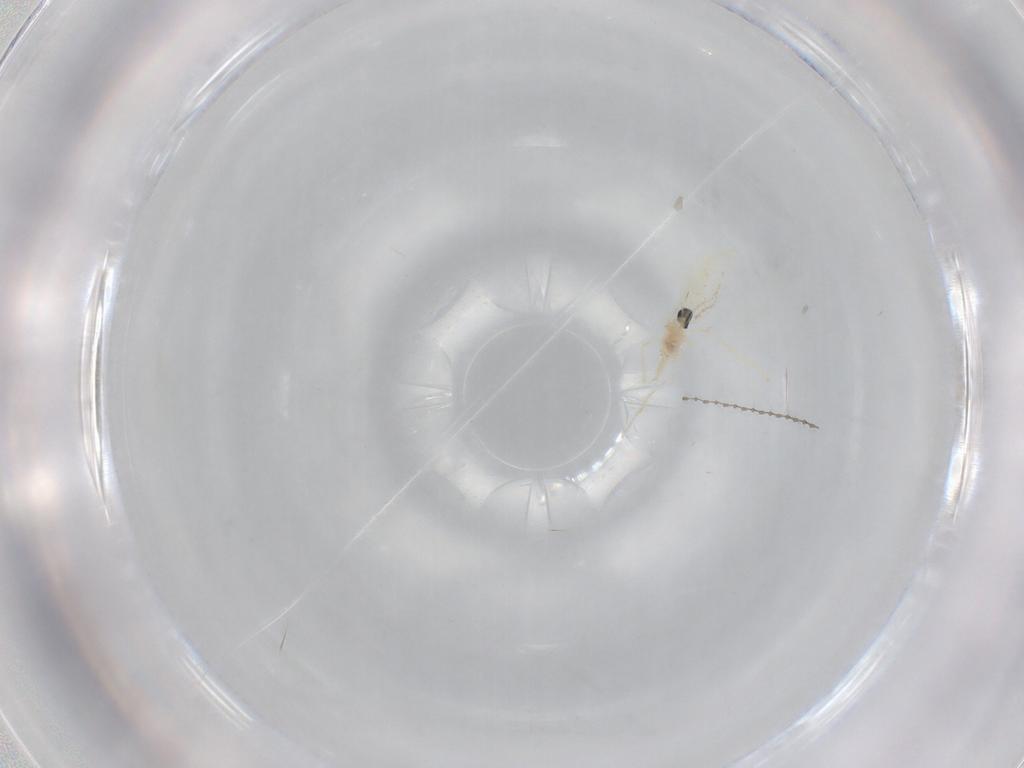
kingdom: Animalia
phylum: Arthropoda
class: Insecta
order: Diptera
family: Cecidomyiidae
